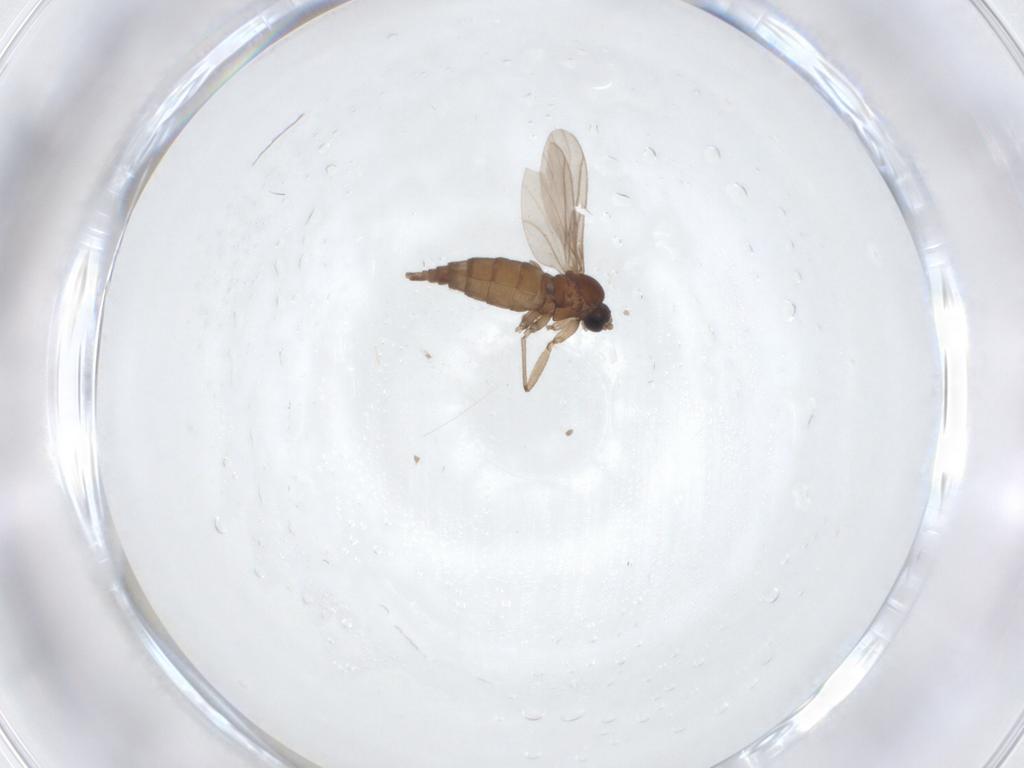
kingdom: Animalia
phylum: Arthropoda
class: Insecta
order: Diptera
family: Sciaridae
